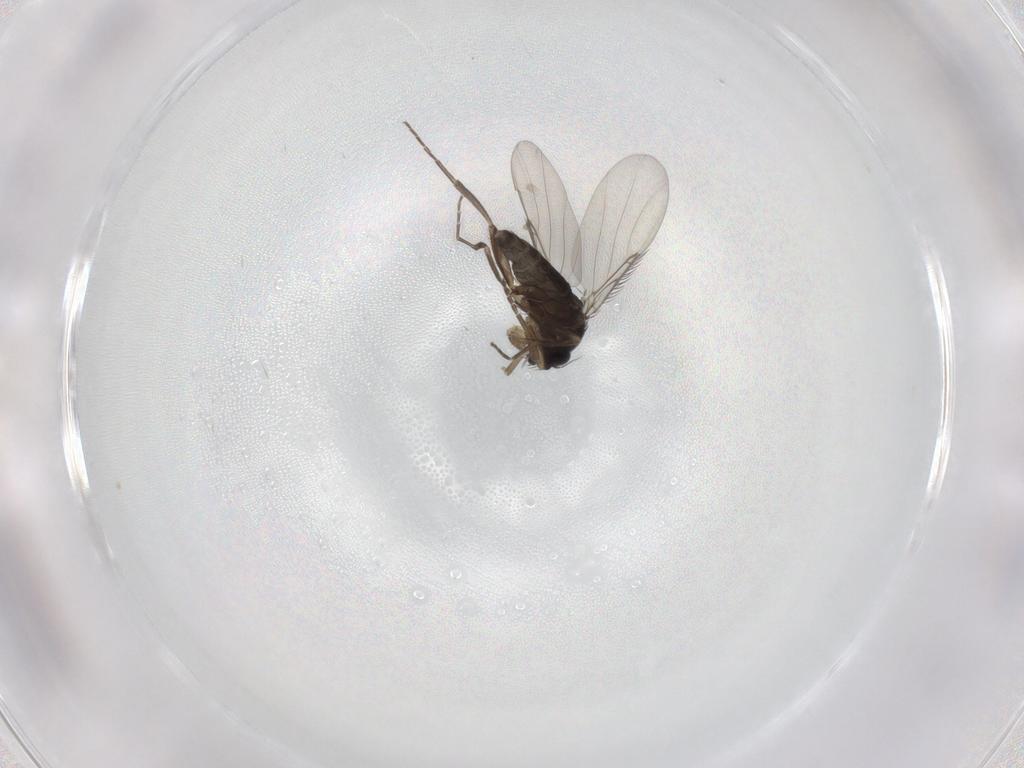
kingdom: Animalia
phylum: Arthropoda
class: Insecta
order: Diptera
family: Phoridae
